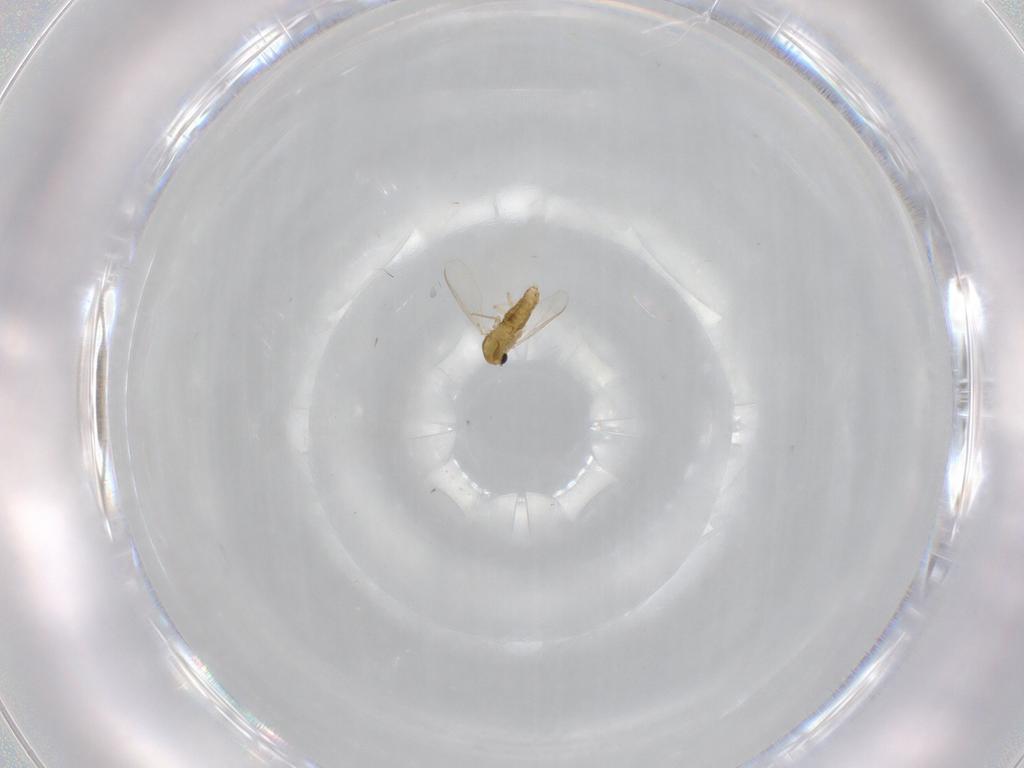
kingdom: Animalia
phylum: Arthropoda
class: Insecta
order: Diptera
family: Chironomidae
